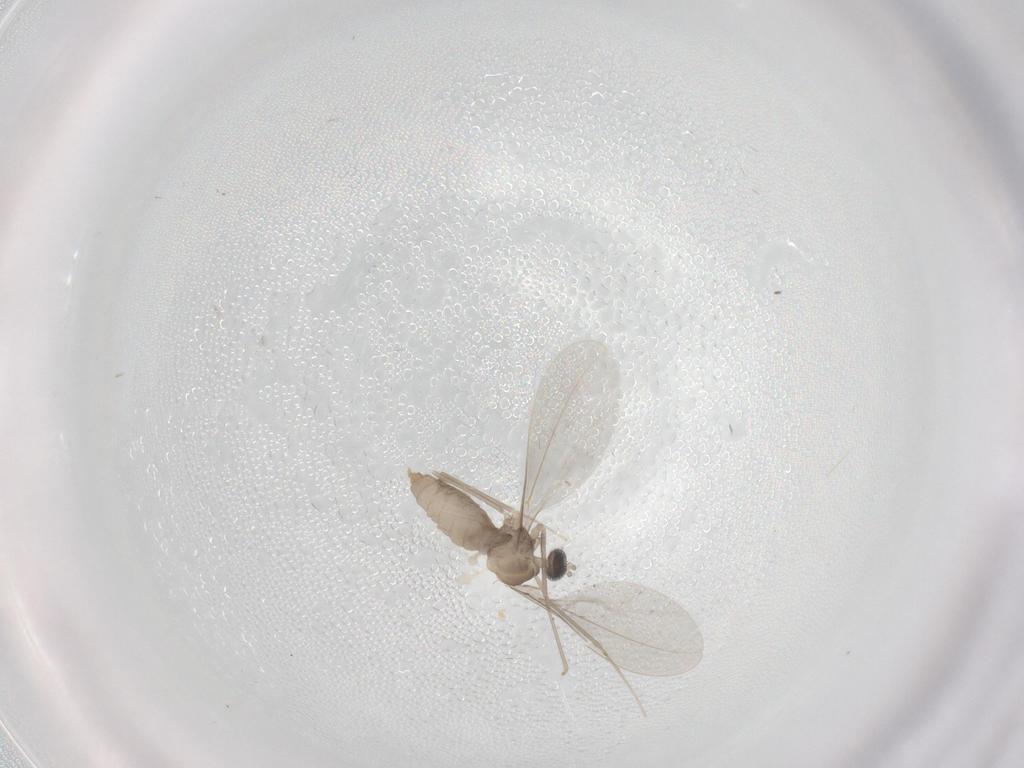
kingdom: Animalia
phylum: Arthropoda
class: Insecta
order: Diptera
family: Cecidomyiidae
